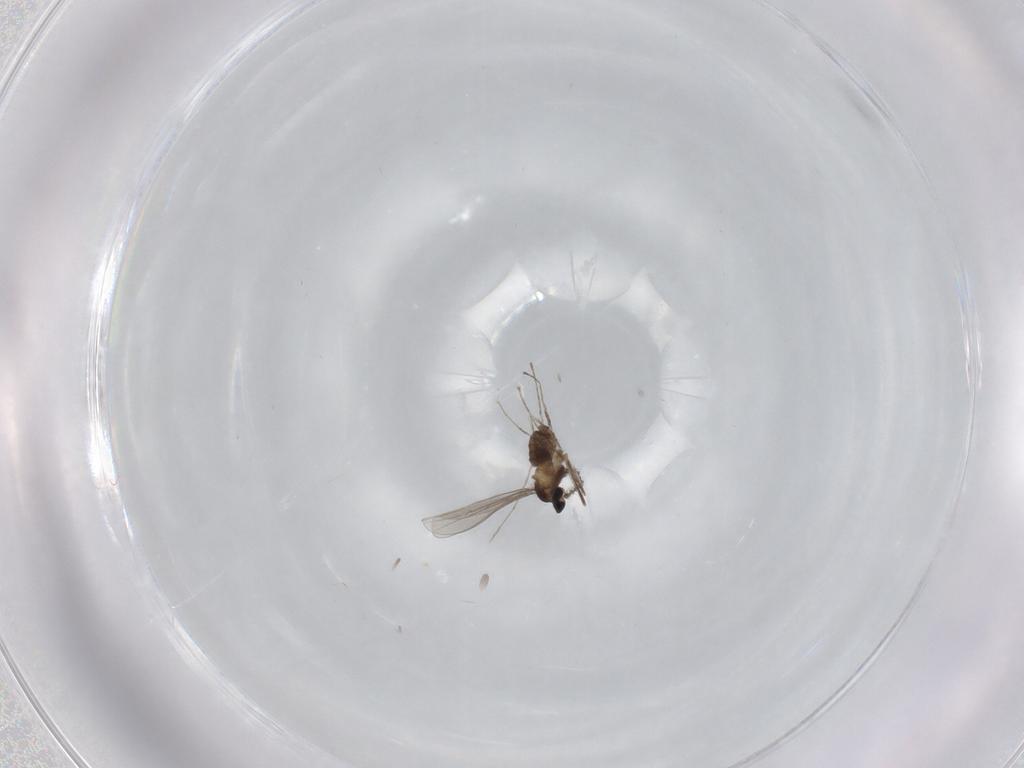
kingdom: Animalia
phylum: Arthropoda
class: Insecta
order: Diptera
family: Cecidomyiidae
